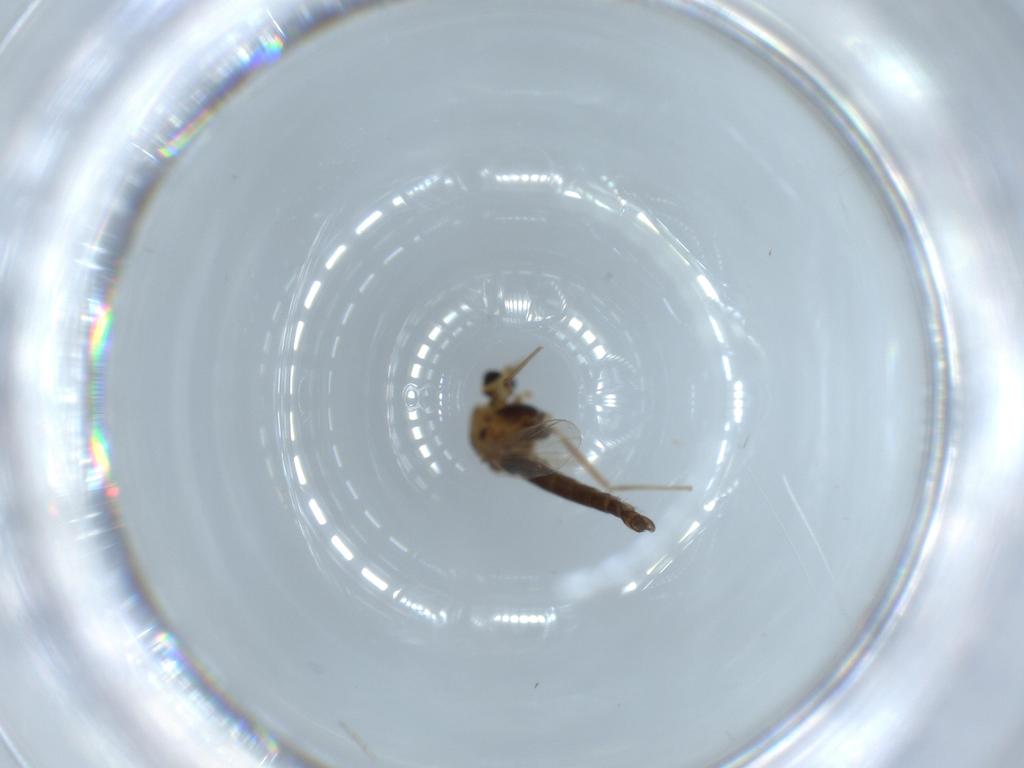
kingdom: Animalia
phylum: Arthropoda
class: Insecta
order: Diptera
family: Chironomidae
